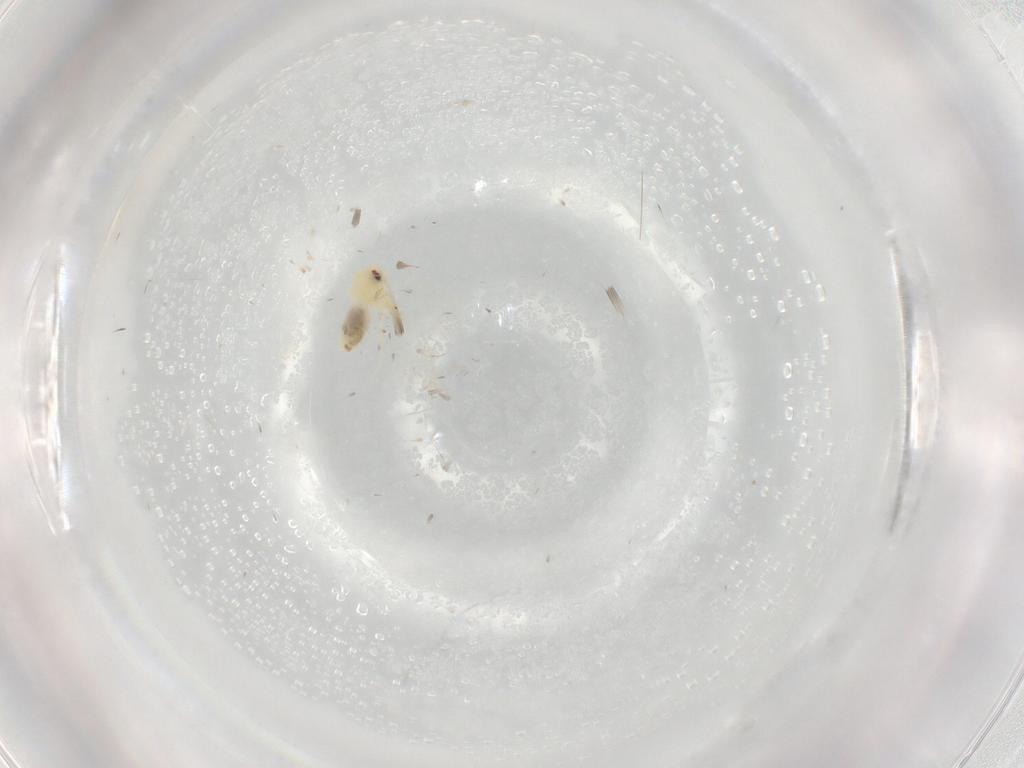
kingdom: Animalia
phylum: Arthropoda
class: Insecta
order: Hemiptera
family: Aleyrodidae
